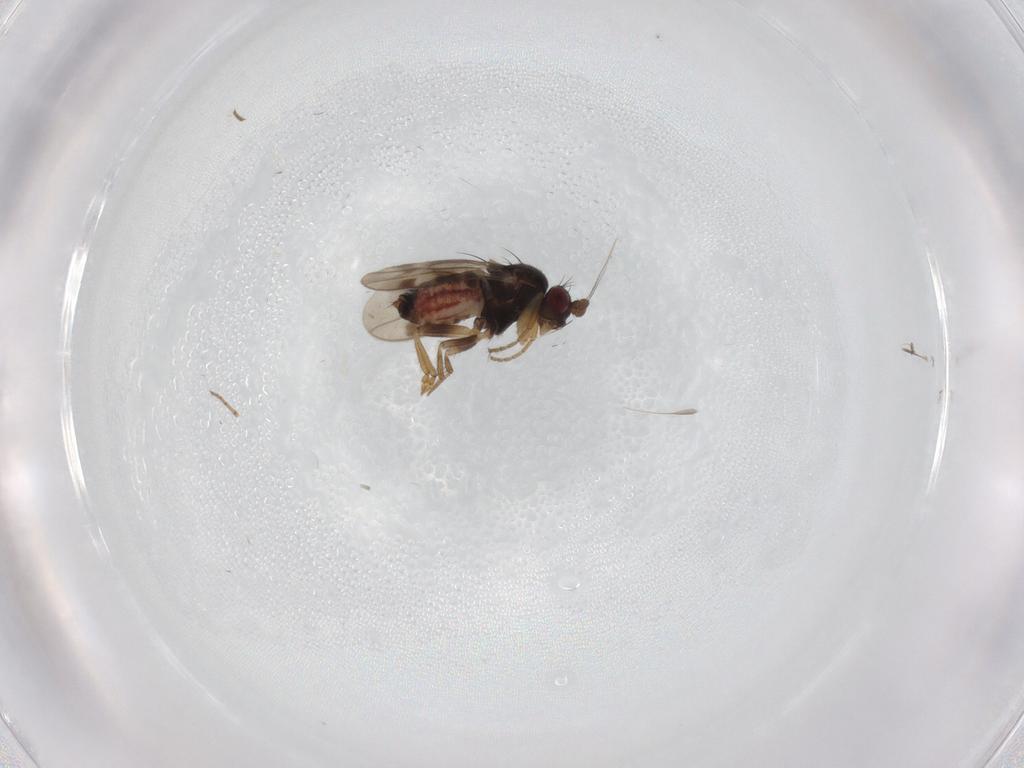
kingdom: Animalia
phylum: Arthropoda
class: Insecta
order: Diptera
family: Sphaeroceridae
